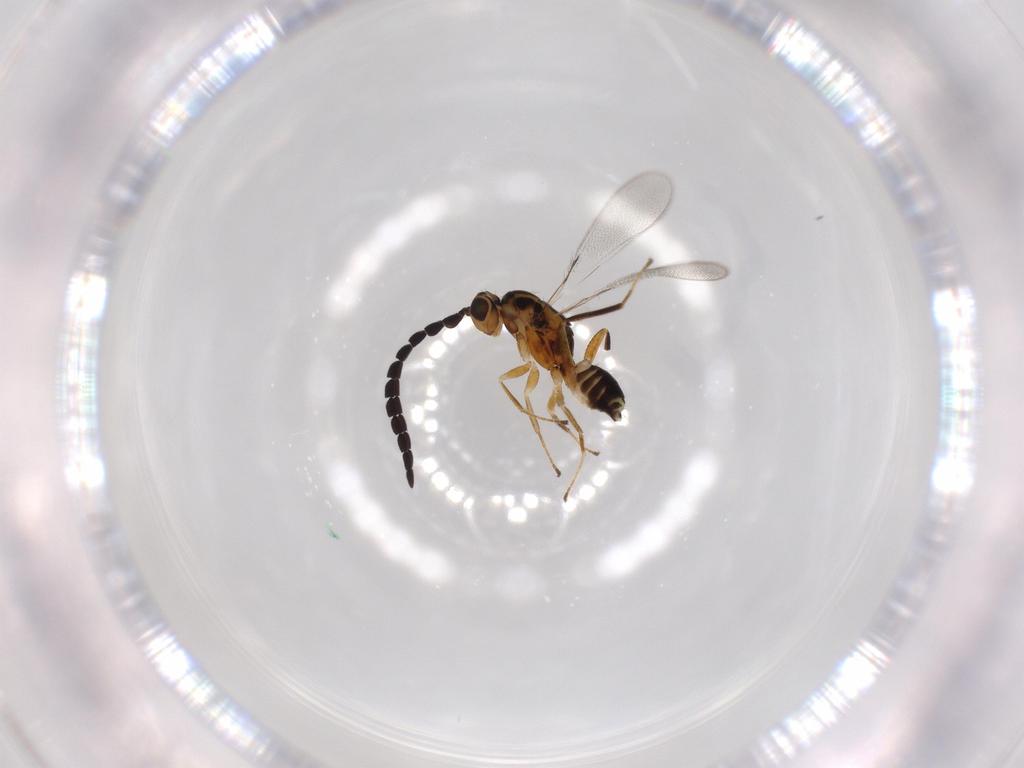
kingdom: Animalia
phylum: Arthropoda
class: Insecta
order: Hymenoptera
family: Mymaridae
